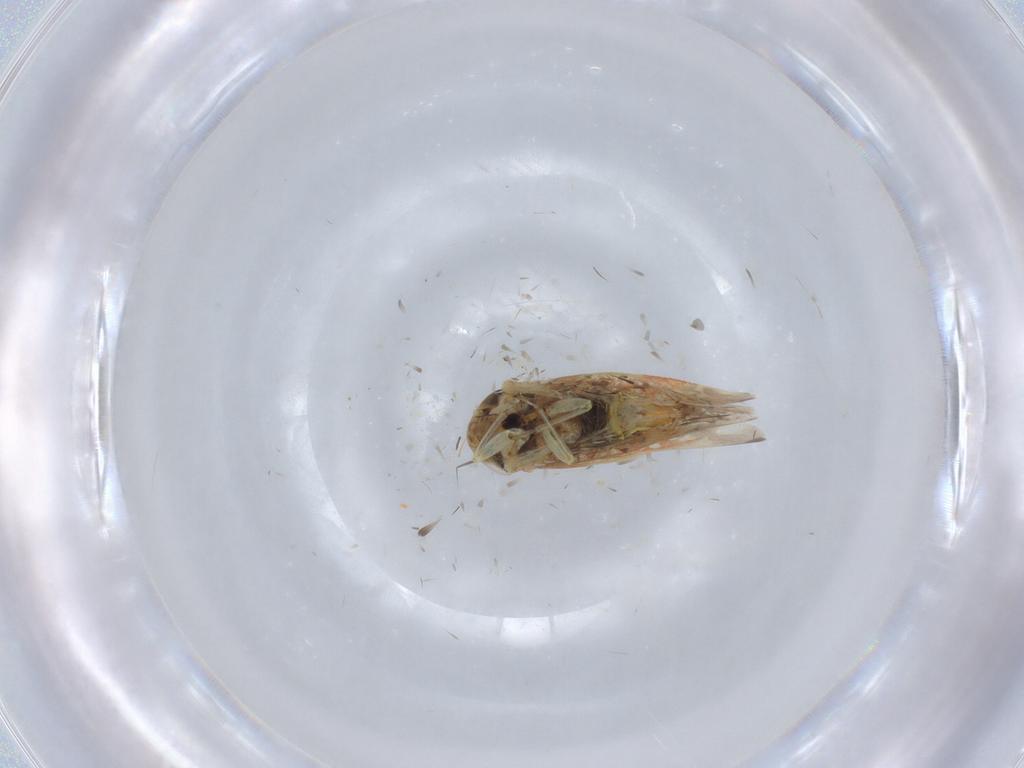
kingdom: Animalia
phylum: Arthropoda
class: Insecta
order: Hemiptera
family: Cicadellidae
